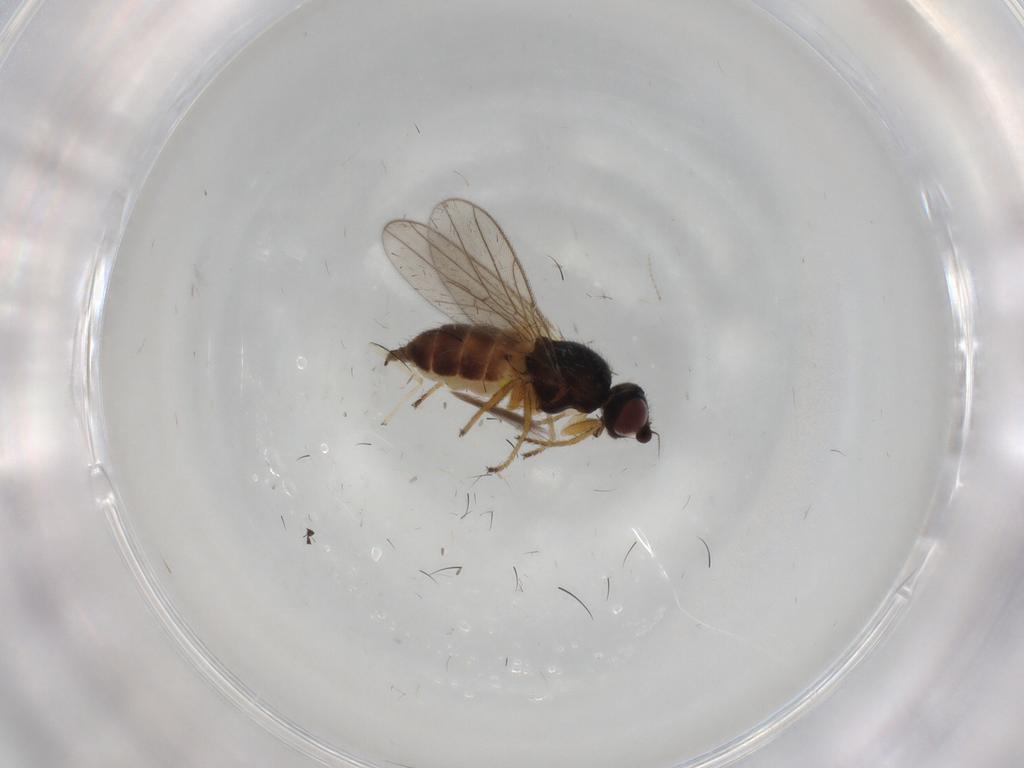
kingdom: Animalia
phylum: Arthropoda
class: Insecta
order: Diptera
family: Chloropidae
